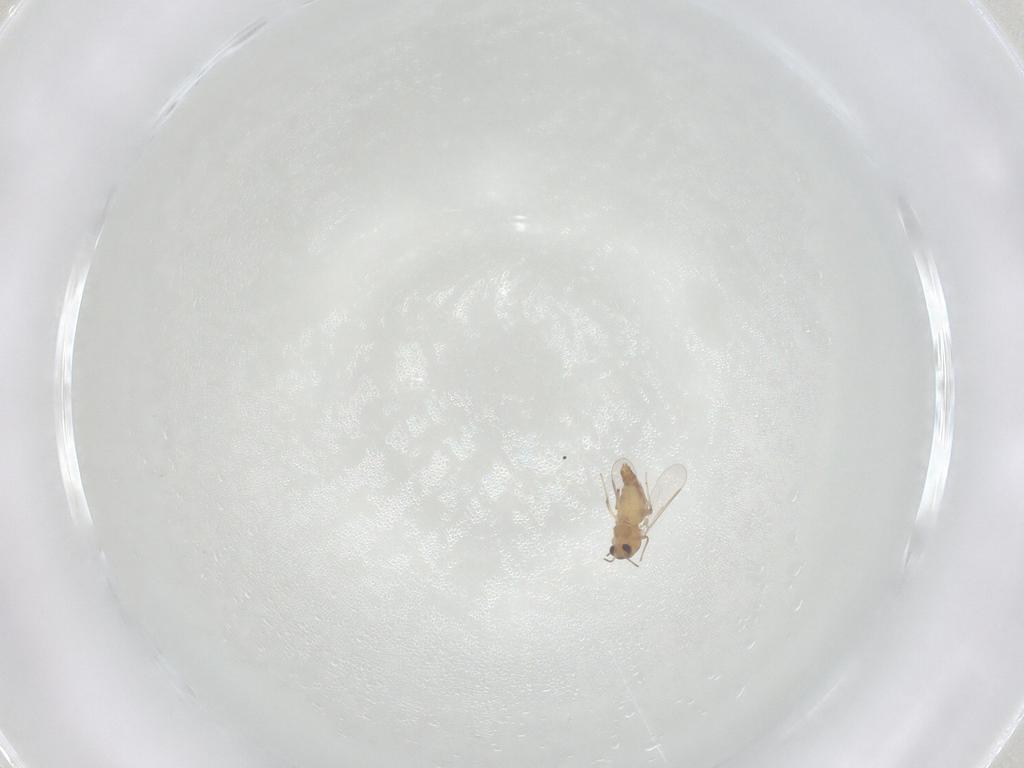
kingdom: Animalia
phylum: Arthropoda
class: Insecta
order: Diptera
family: Chironomidae
